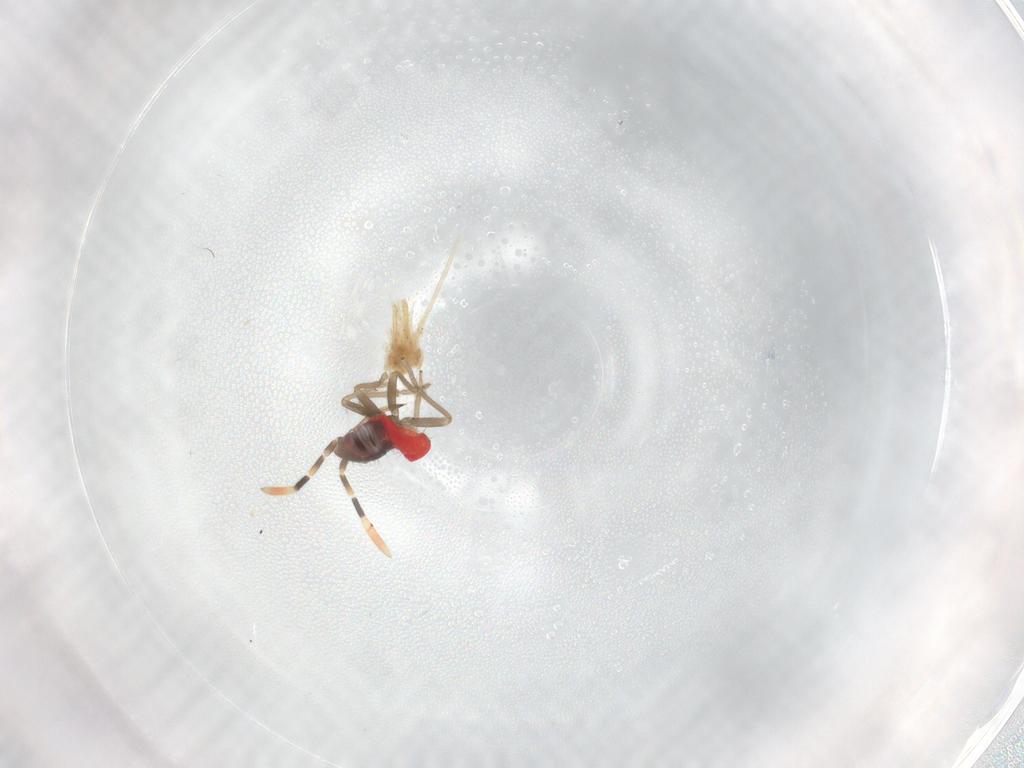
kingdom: Animalia
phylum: Arthropoda
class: Insecta
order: Hemiptera
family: Rhyparochromidae
